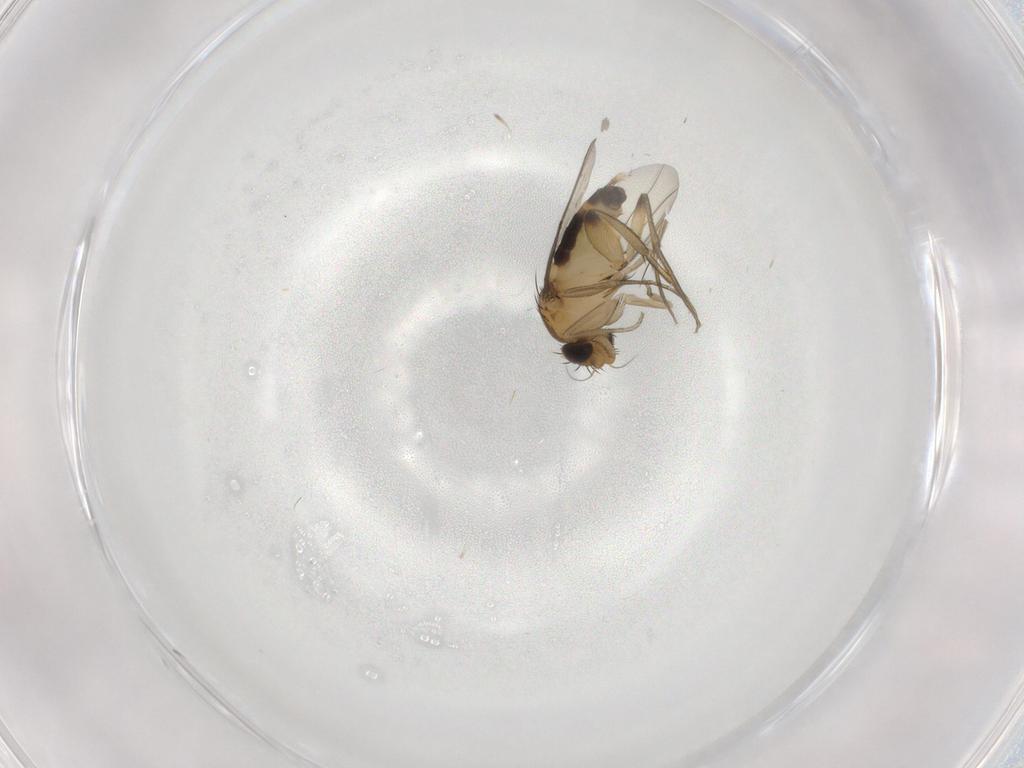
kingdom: Animalia
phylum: Arthropoda
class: Insecta
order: Diptera
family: Phoridae
